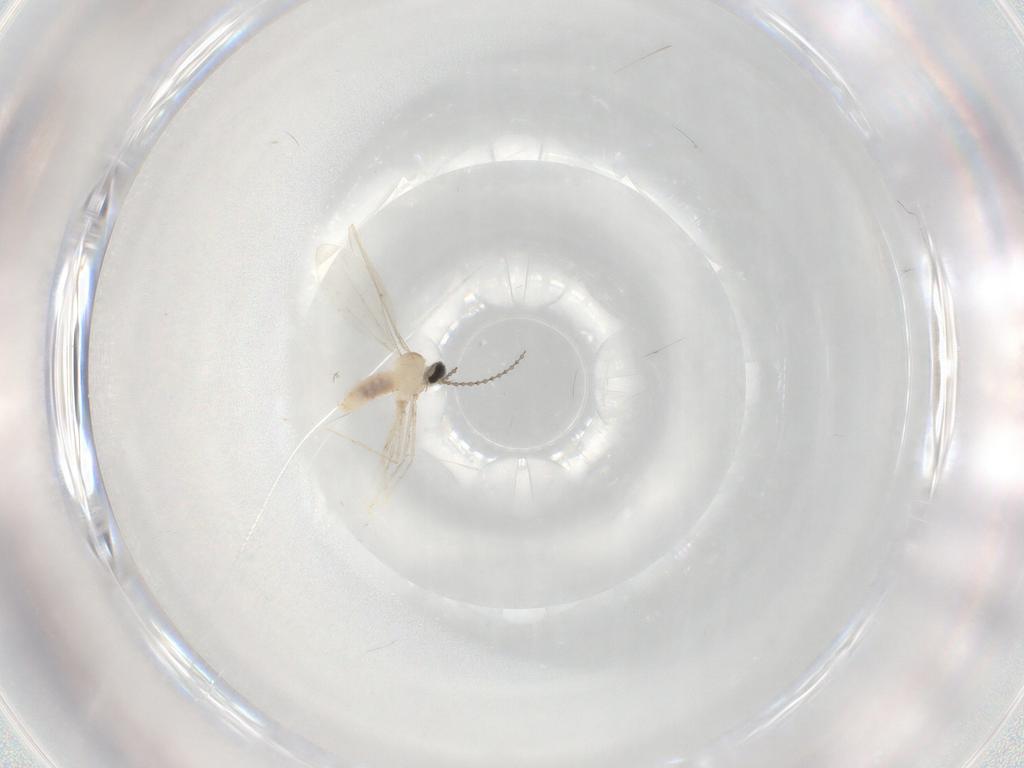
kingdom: Animalia
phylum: Arthropoda
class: Insecta
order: Diptera
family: Cecidomyiidae
